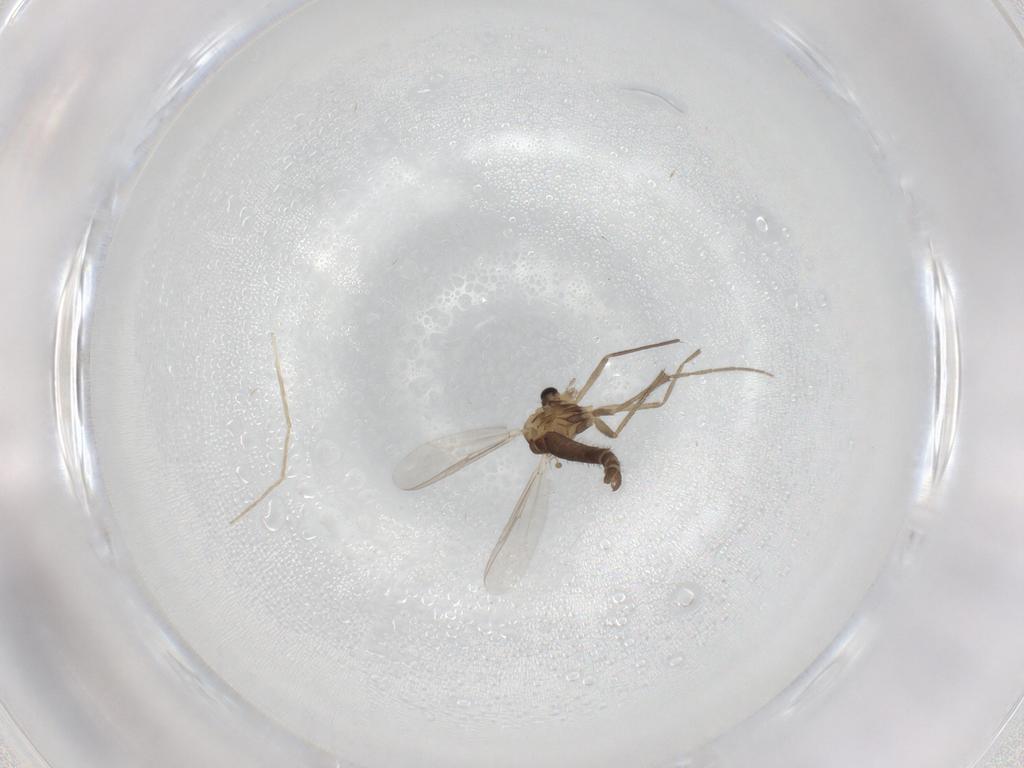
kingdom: Animalia
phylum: Arthropoda
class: Insecta
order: Diptera
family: Chironomidae
